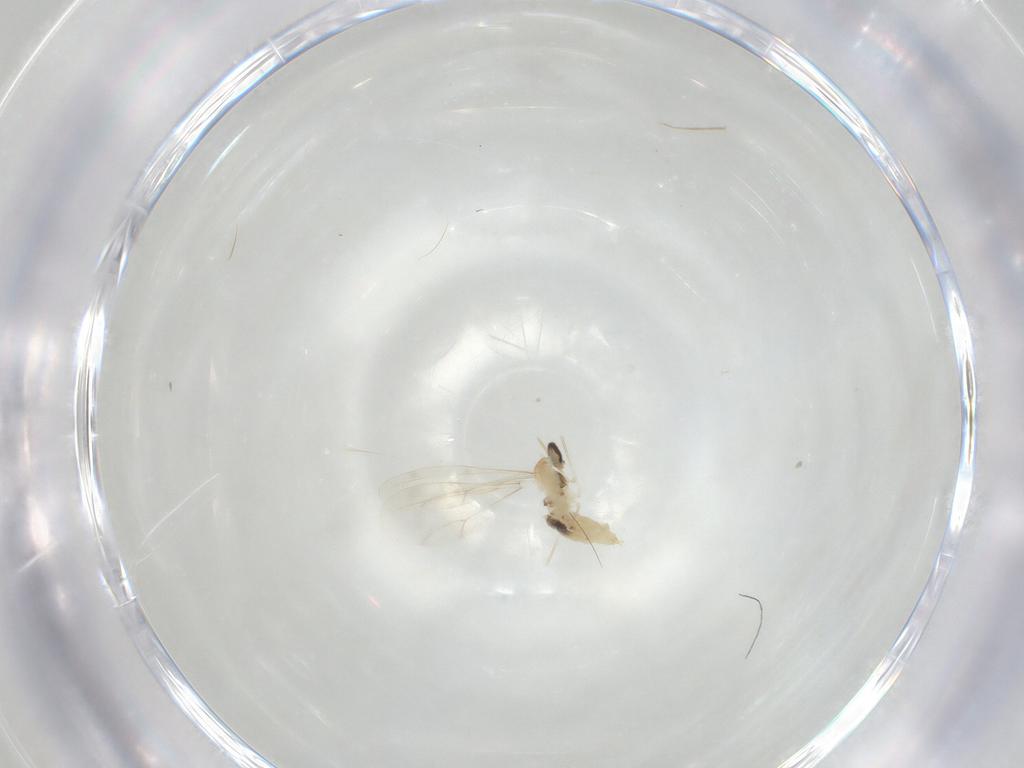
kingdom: Animalia
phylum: Arthropoda
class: Insecta
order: Diptera
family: Cecidomyiidae
